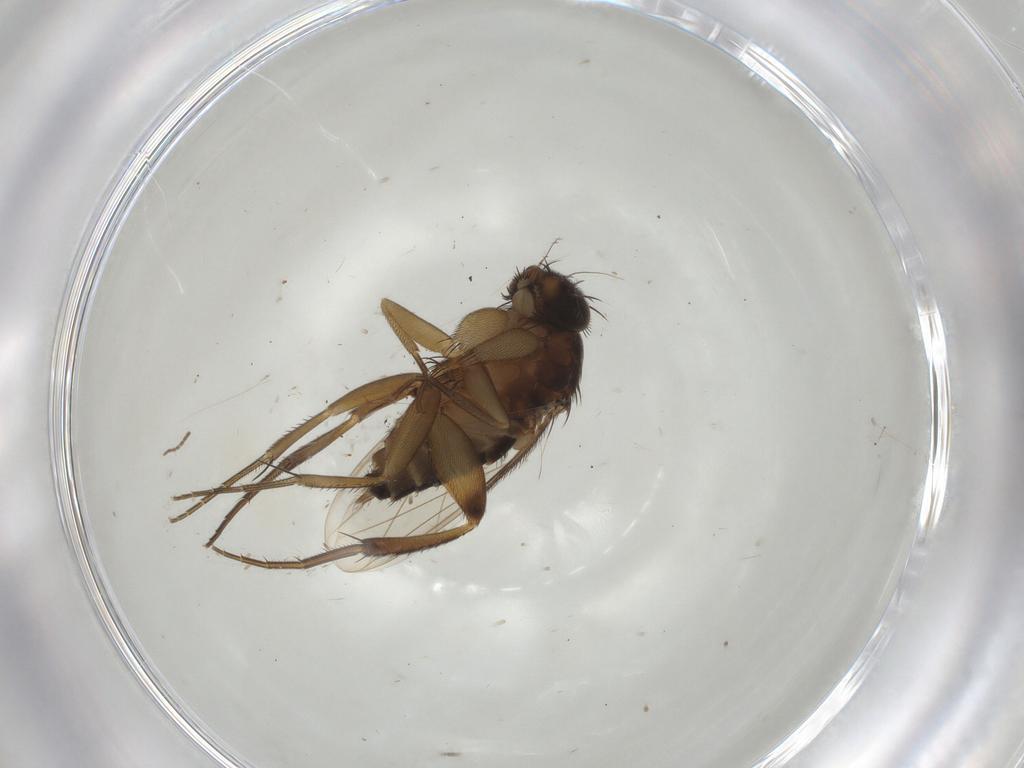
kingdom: Animalia
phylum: Arthropoda
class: Insecta
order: Diptera
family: Phoridae
